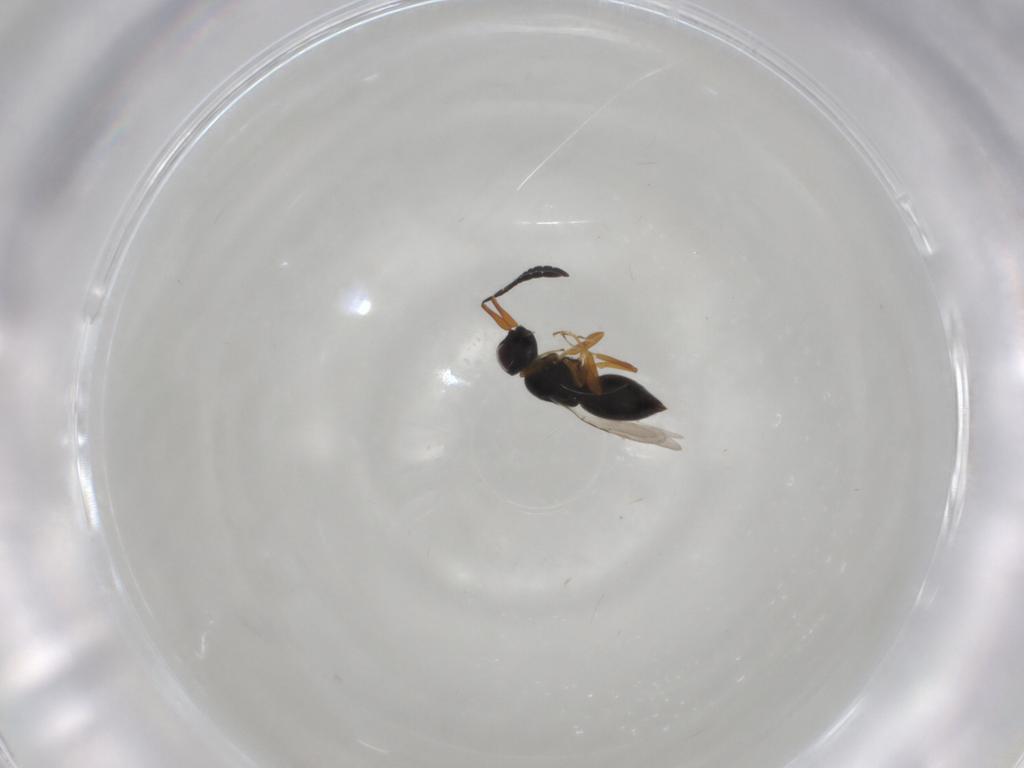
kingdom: Animalia
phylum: Arthropoda
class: Insecta
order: Hymenoptera
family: Ceraphronidae
